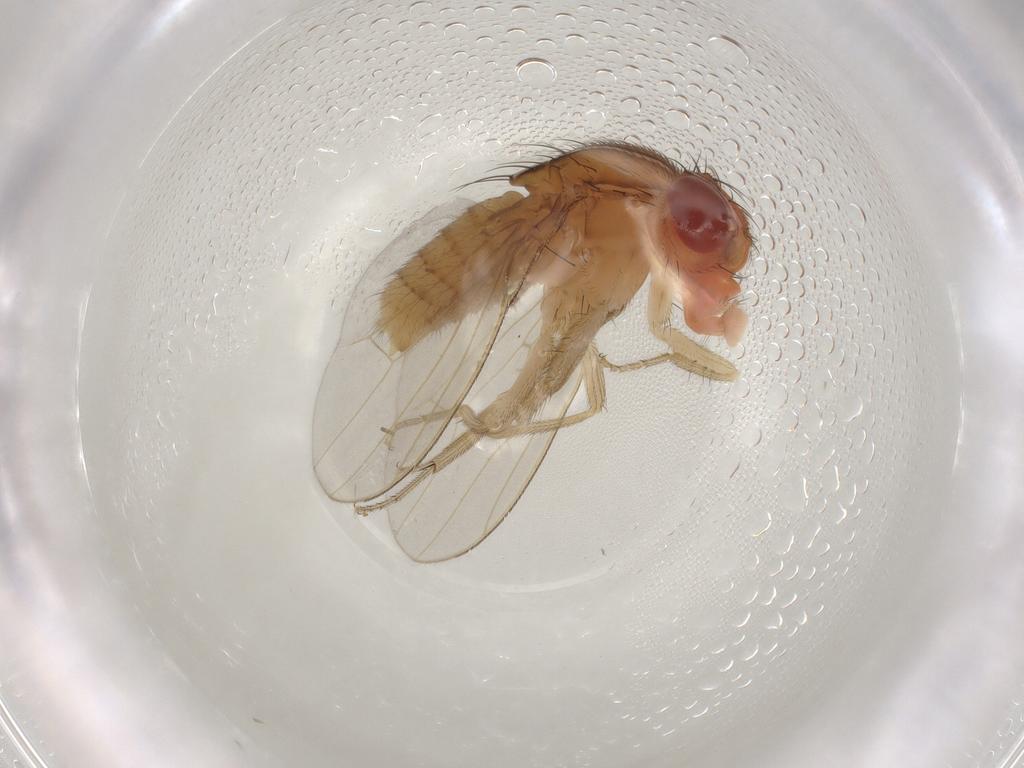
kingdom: Animalia
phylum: Arthropoda
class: Insecta
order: Diptera
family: Drosophilidae
